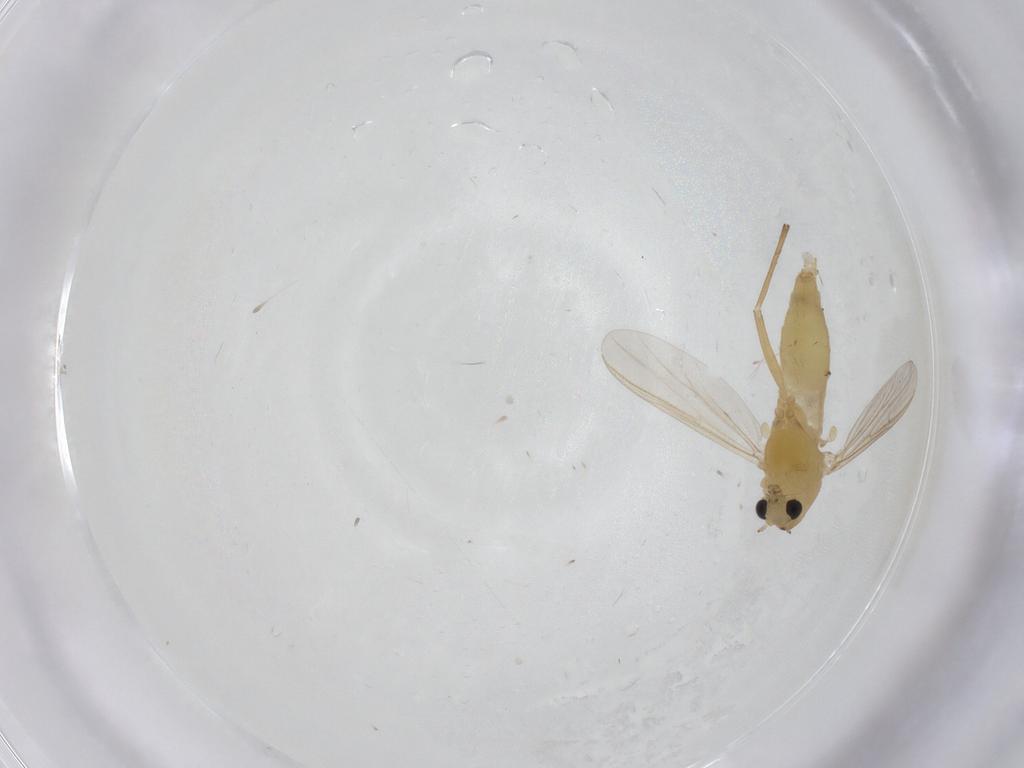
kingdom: Animalia
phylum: Arthropoda
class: Insecta
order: Diptera
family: Chironomidae
